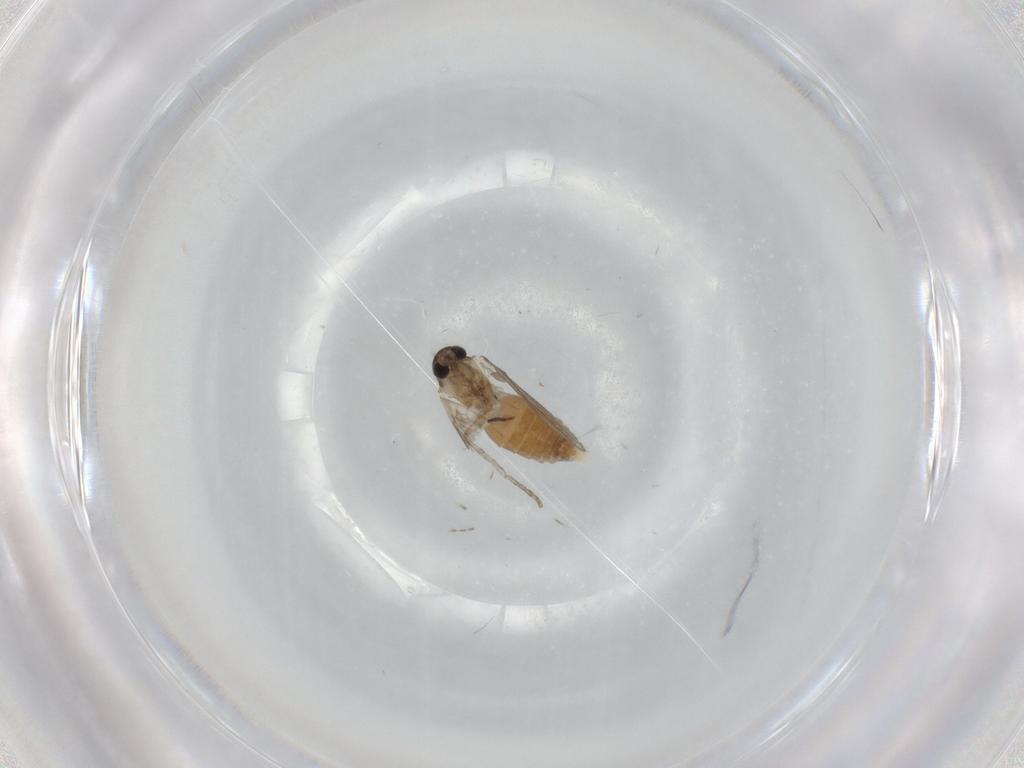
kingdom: Animalia
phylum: Arthropoda
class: Insecta
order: Diptera
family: Psychodidae
